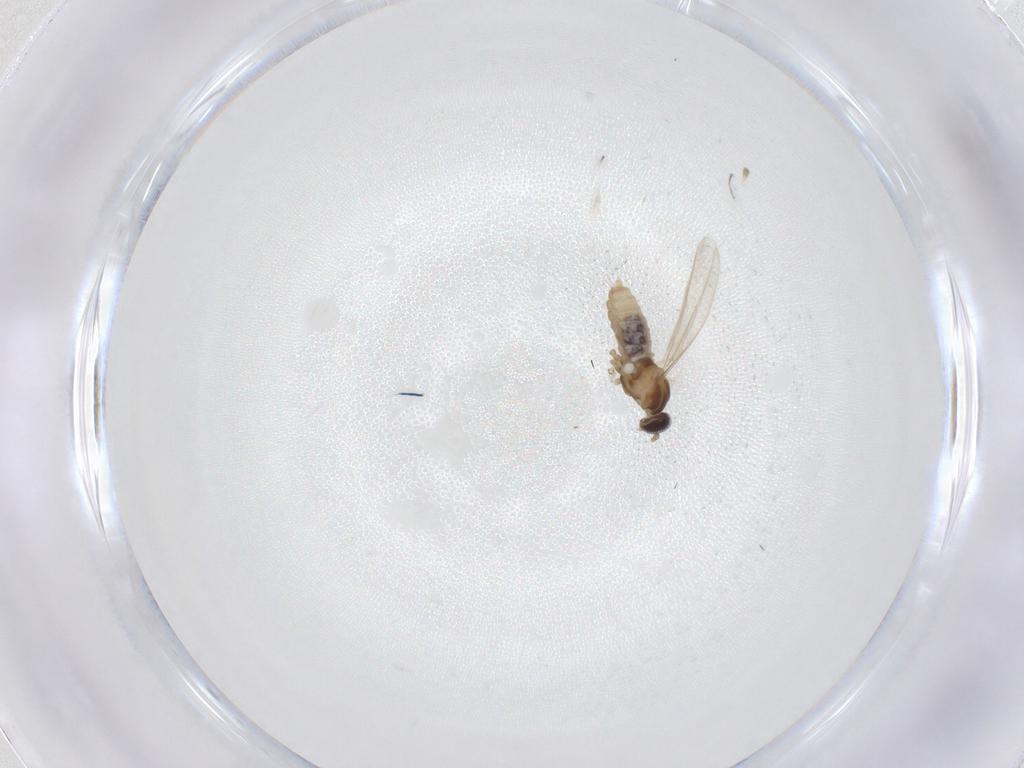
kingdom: Animalia
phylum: Arthropoda
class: Insecta
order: Diptera
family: Cecidomyiidae
